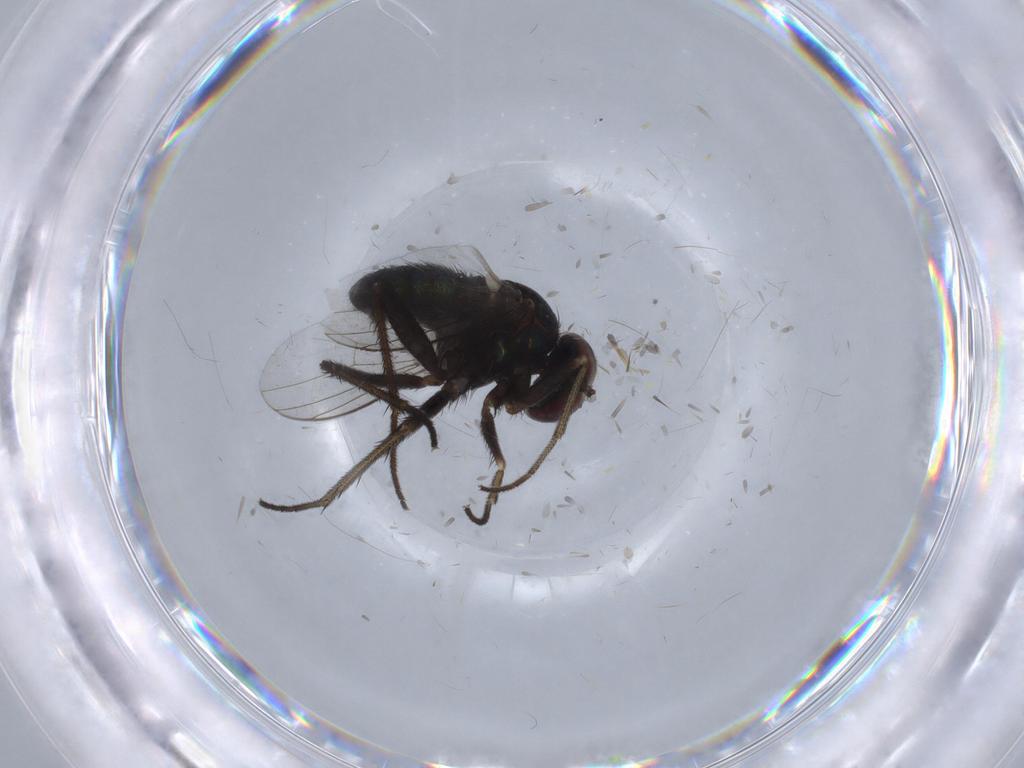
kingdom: Animalia
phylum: Arthropoda
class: Insecta
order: Diptera
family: Dolichopodidae
